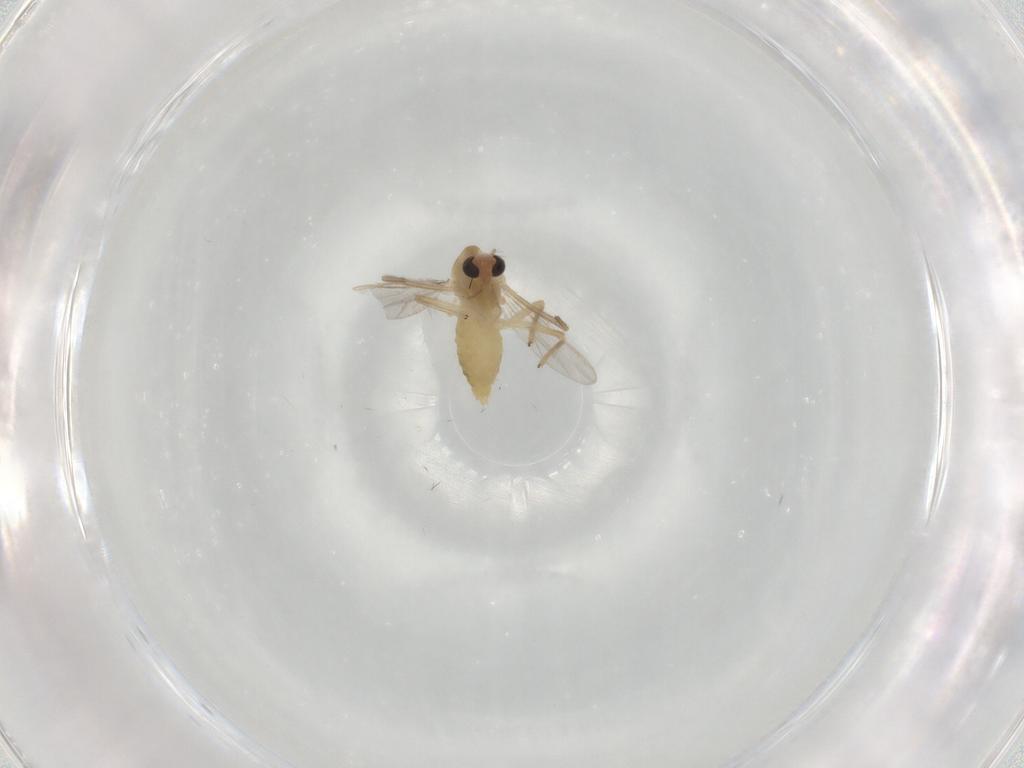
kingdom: Animalia
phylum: Arthropoda
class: Insecta
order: Diptera
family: Chironomidae
